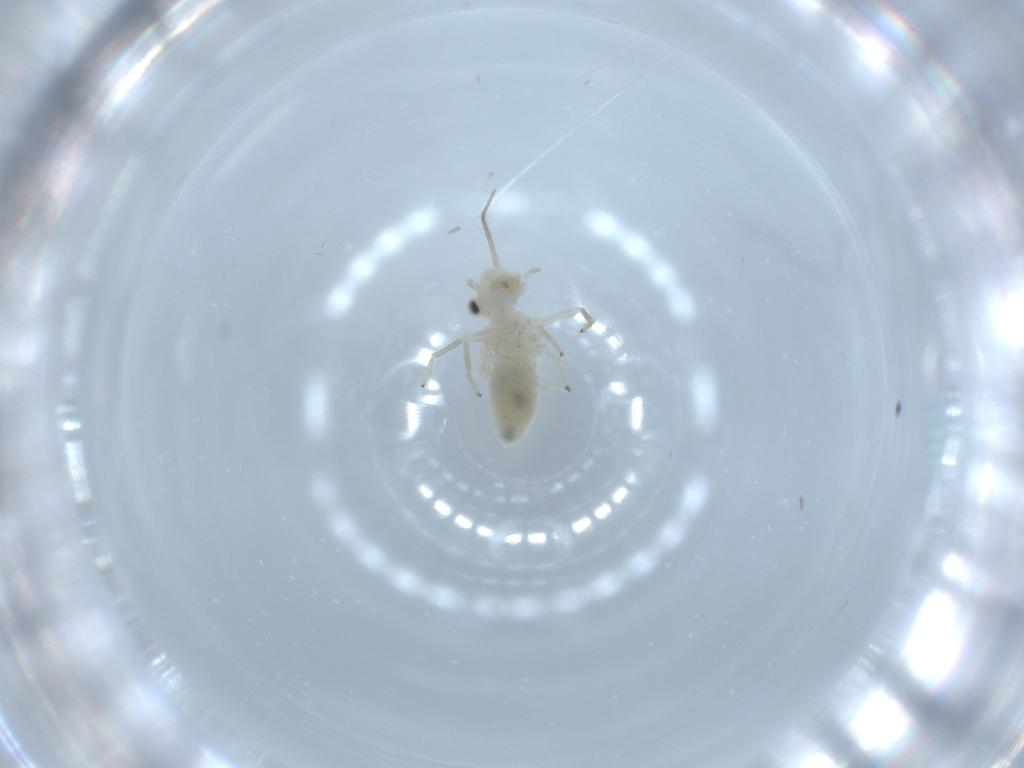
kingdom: Animalia
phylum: Arthropoda
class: Insecta
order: Psocodea
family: Caeciliusidae
